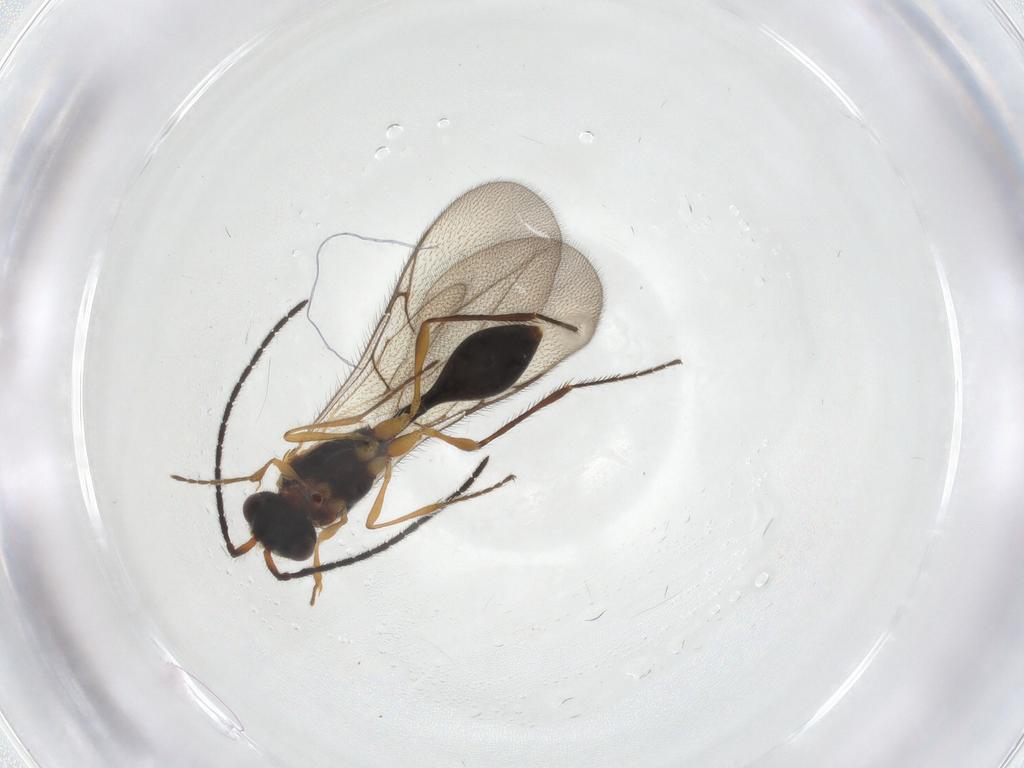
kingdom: Animalia
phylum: Arthropoda
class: Insecta
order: Hymenoptera
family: Diapriidae
